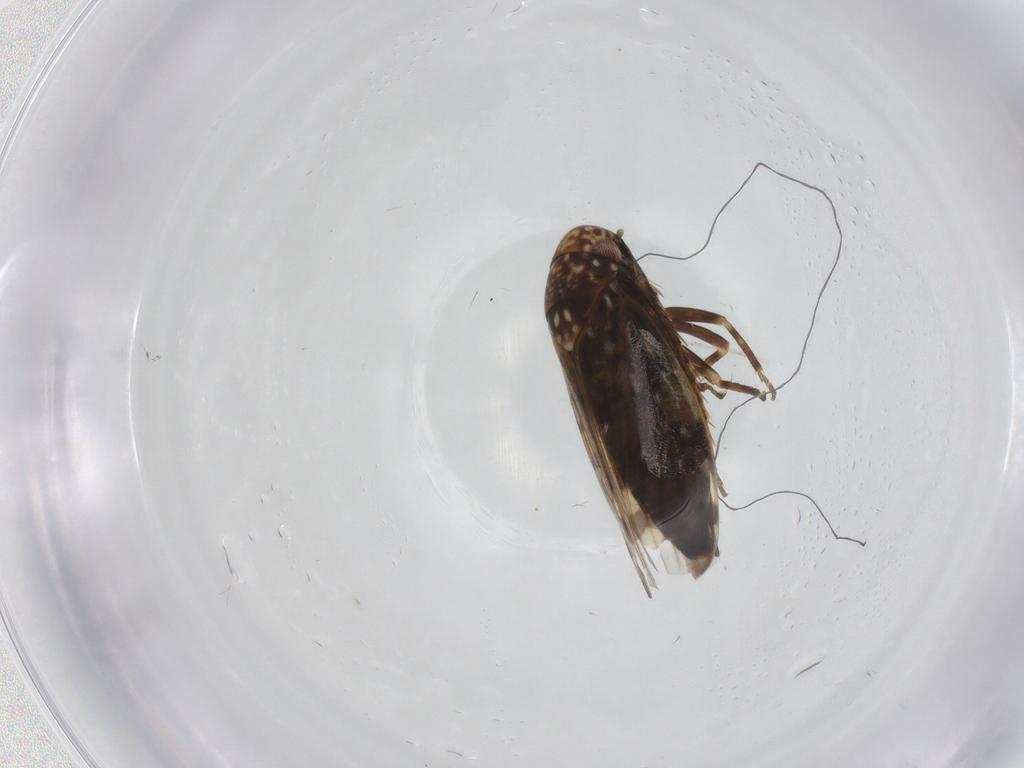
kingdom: Animalia
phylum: Arthropoda
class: Insecta
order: Hemiptera
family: Cicadellidae
